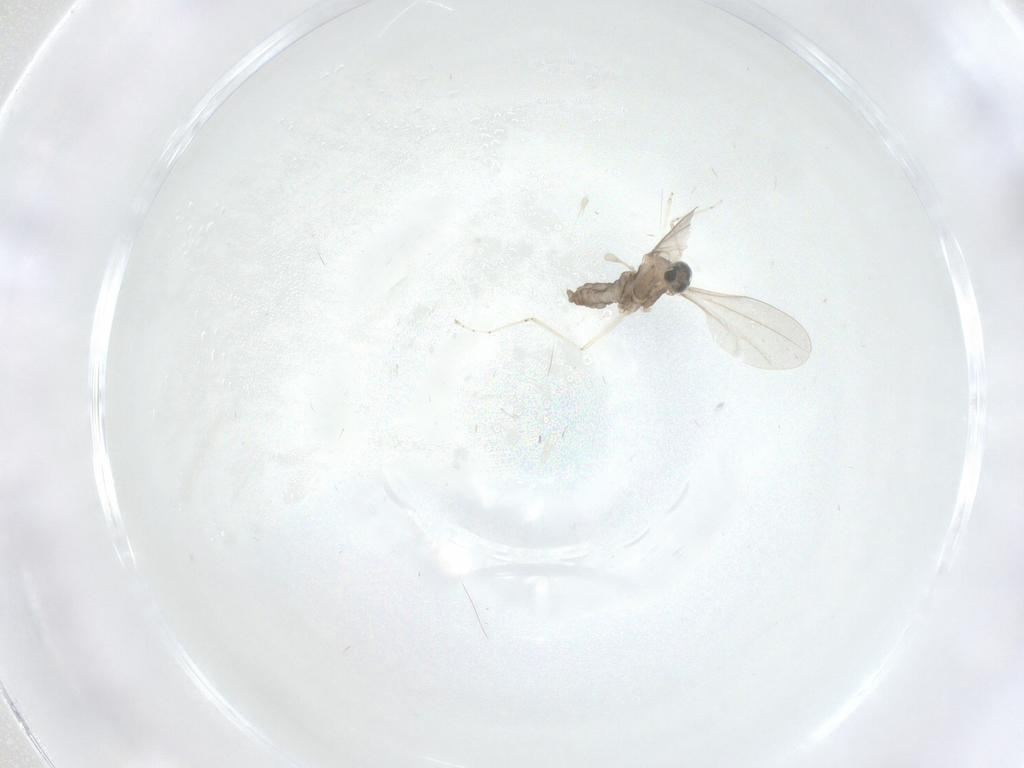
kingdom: Animalia
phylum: Arthropoda
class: Insecta
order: Diptera
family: Cecidomyiidae
